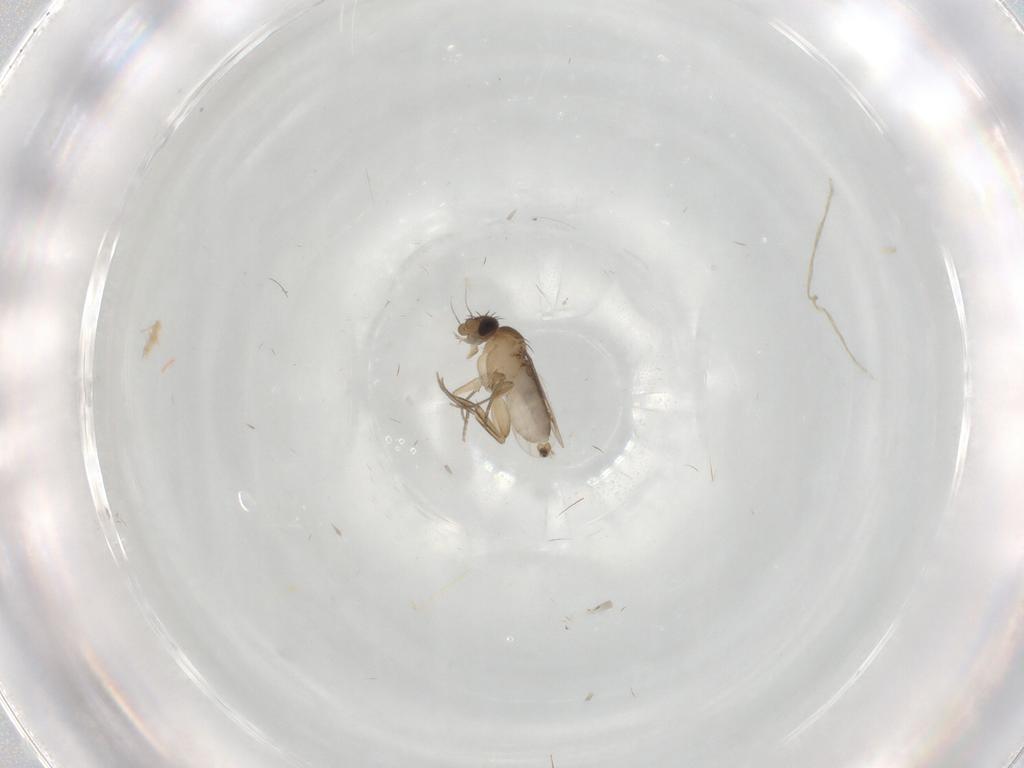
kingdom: Animalia
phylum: Arthropoda
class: Insecta
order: Diptera
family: Phoridae
